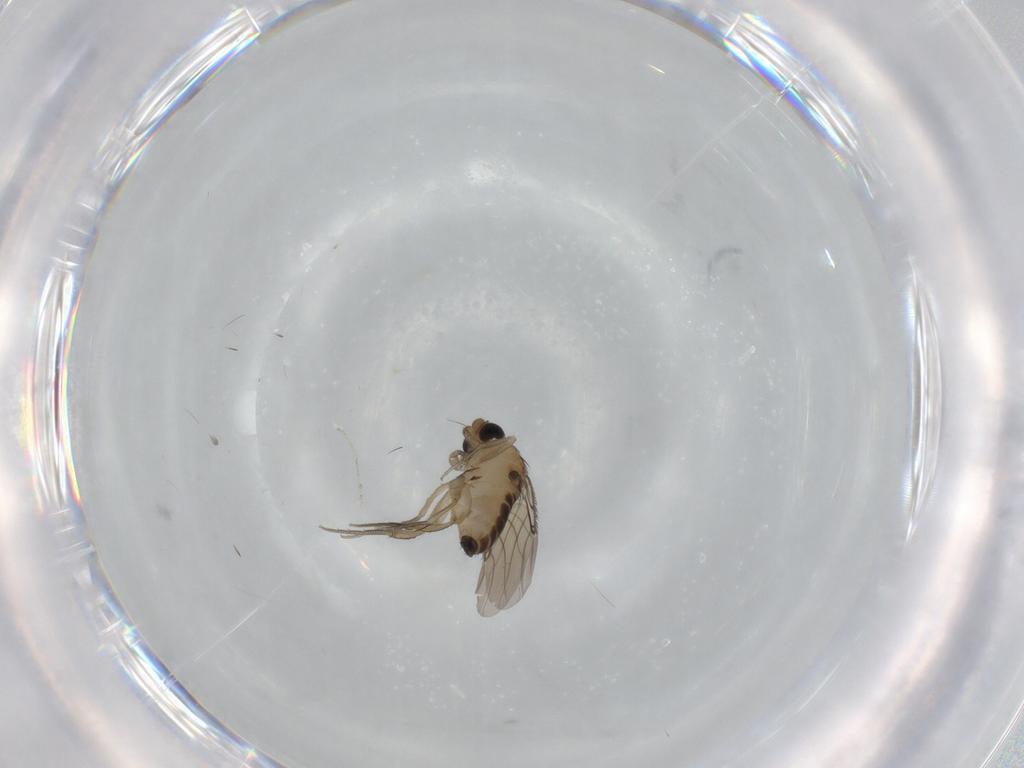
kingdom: Animalia
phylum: Arthropoda
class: Insecta
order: Diptera
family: Phoridae
